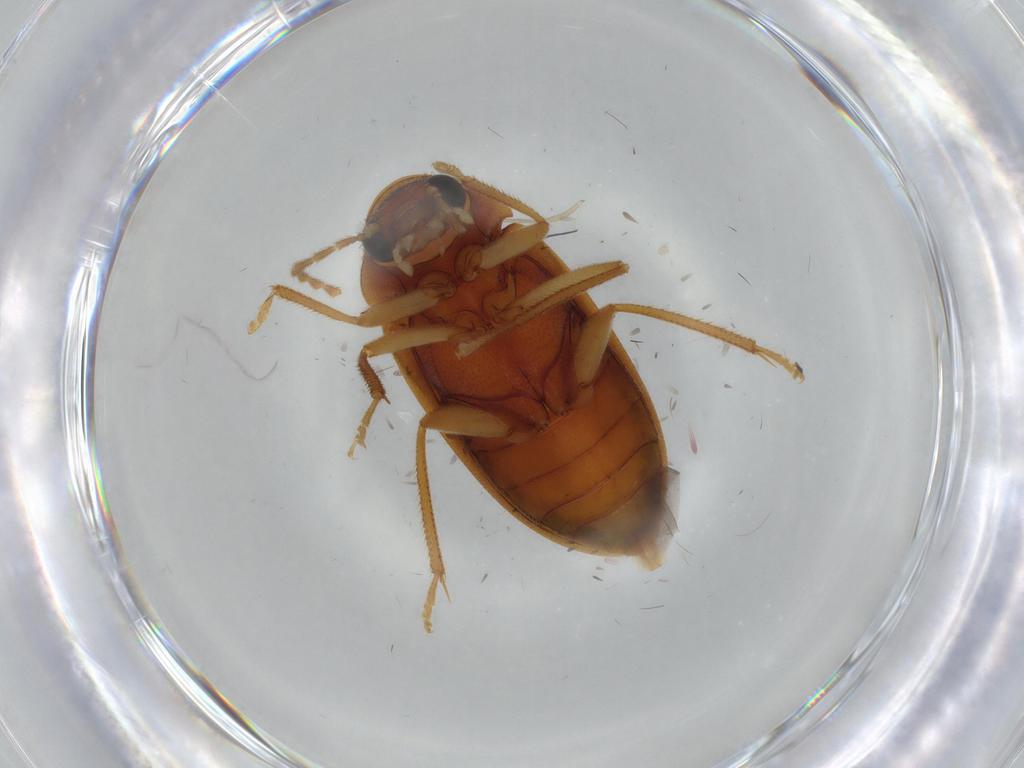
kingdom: Animalia
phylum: Arthropoda
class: Insecta
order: Coleoptera
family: Ptilodactylidae
